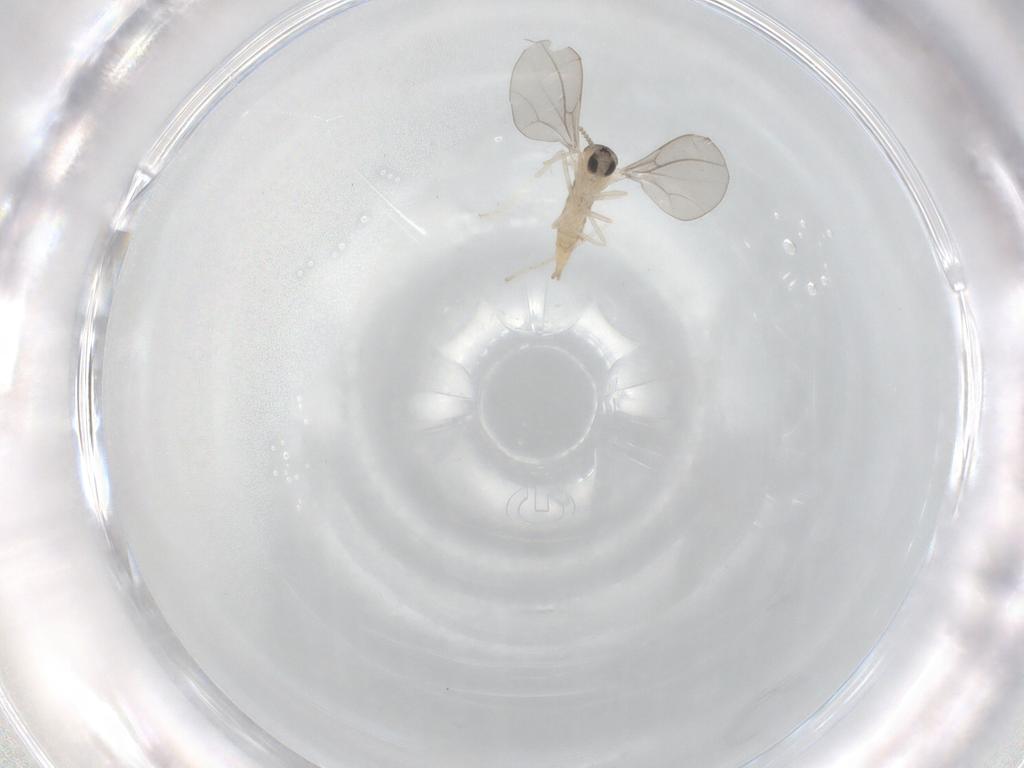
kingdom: Animalia
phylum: Arthropoda
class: Insecta
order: Diptera
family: Cecidomyiidae
